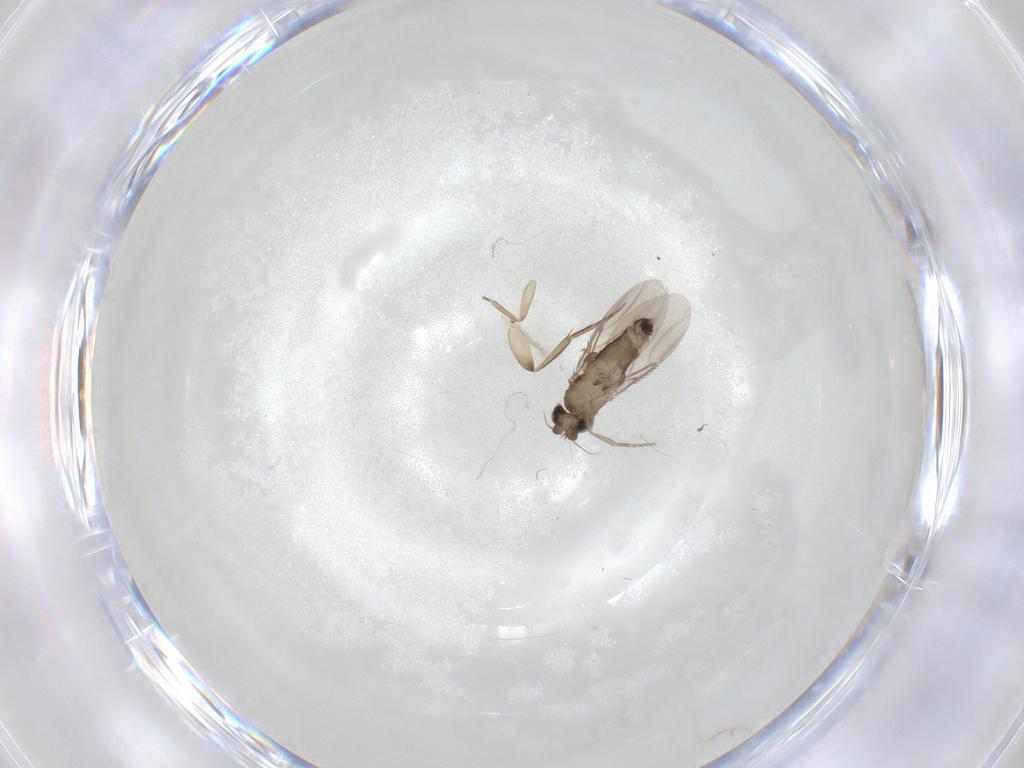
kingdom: Animalia
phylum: Arthropoda
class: Insecta
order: Diptera
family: Phoridae
